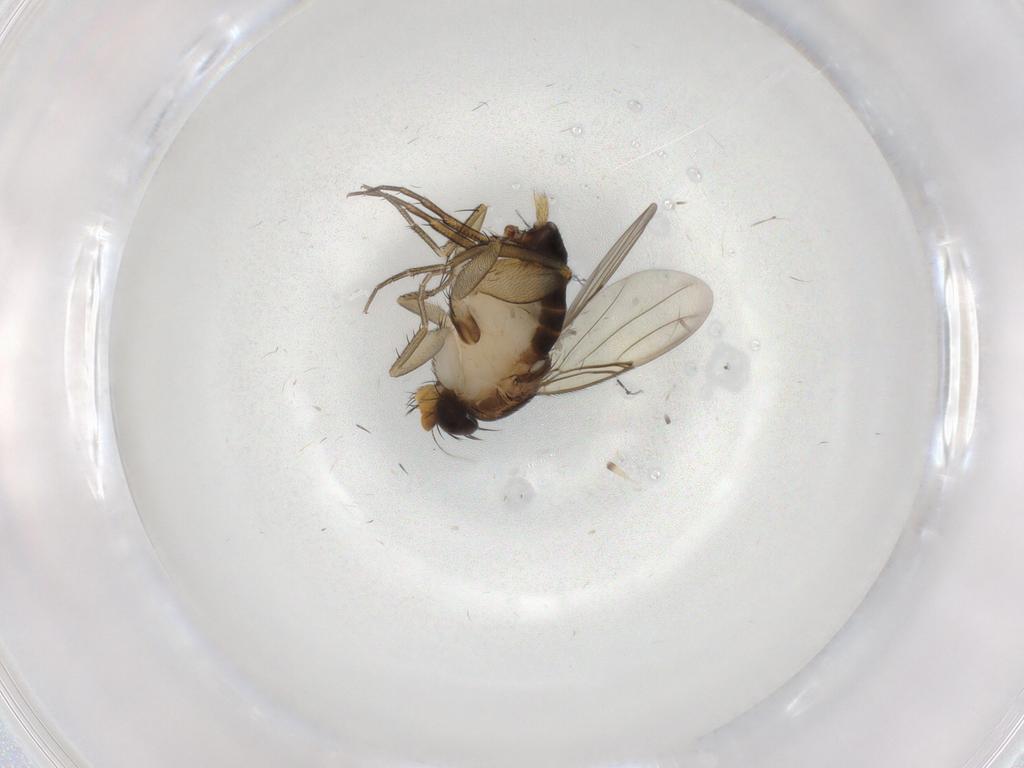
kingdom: Animalia
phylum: Arthropoda
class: Insecta
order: Diptera
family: Phoridae
